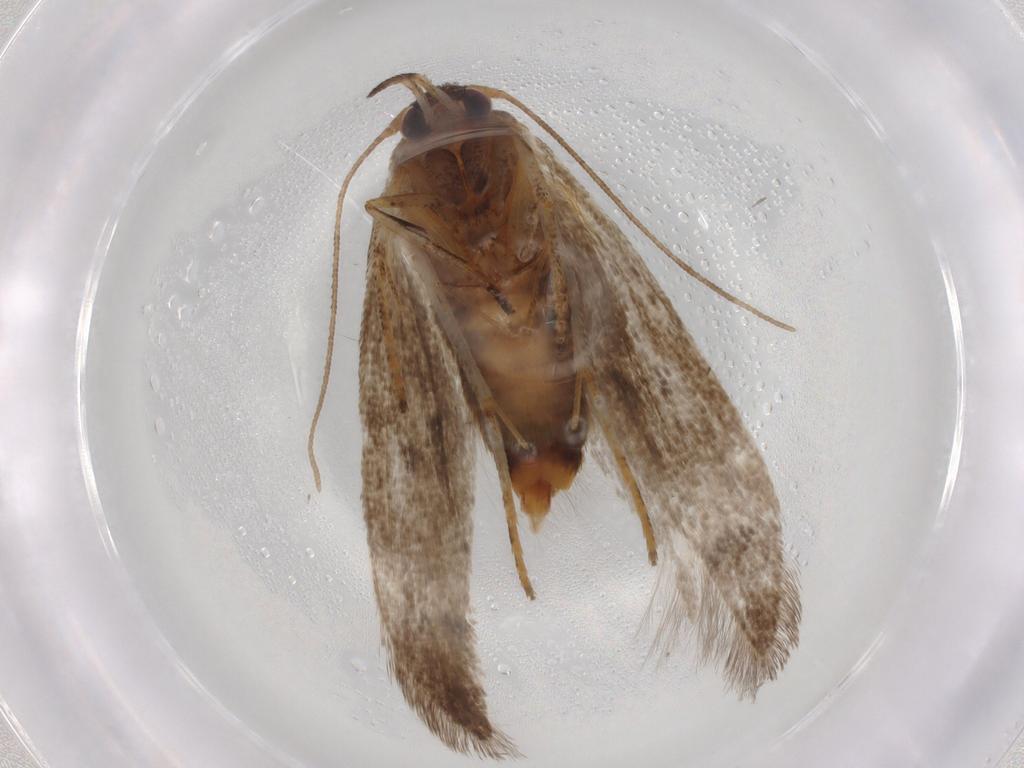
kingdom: Animalia
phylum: Arthropoda
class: Insecta
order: Lepidoptera
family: Blastobasidae
